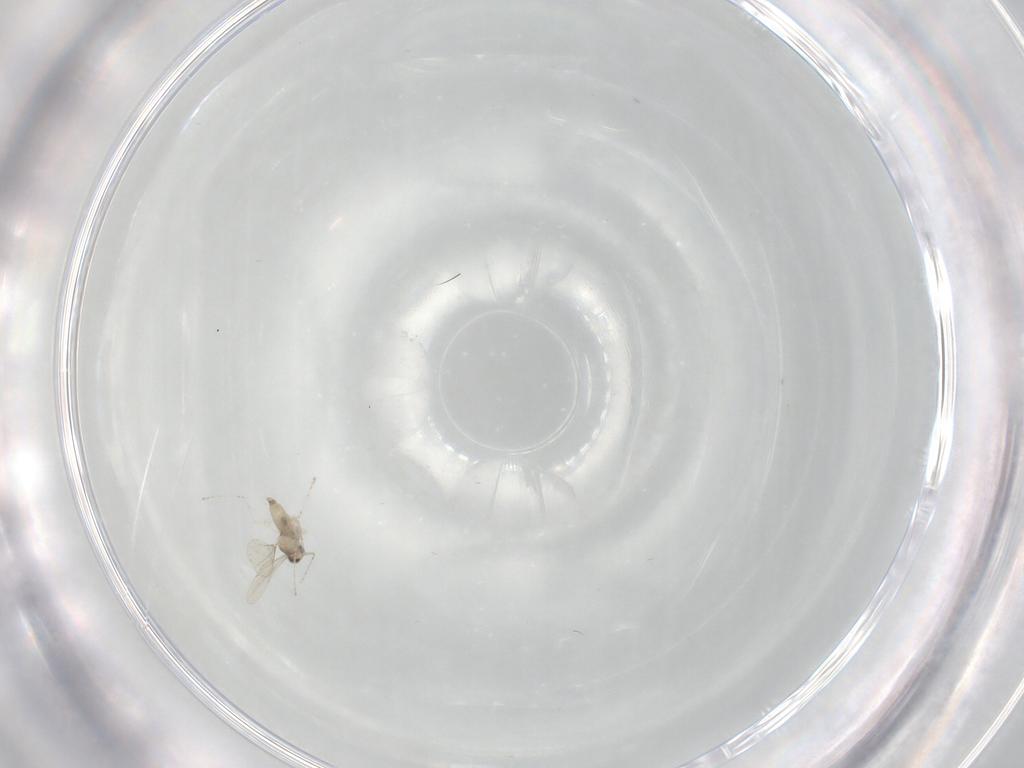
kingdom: Animalia
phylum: Arthropoda
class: Insecta
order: Diptera
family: Cecidomyiidae
